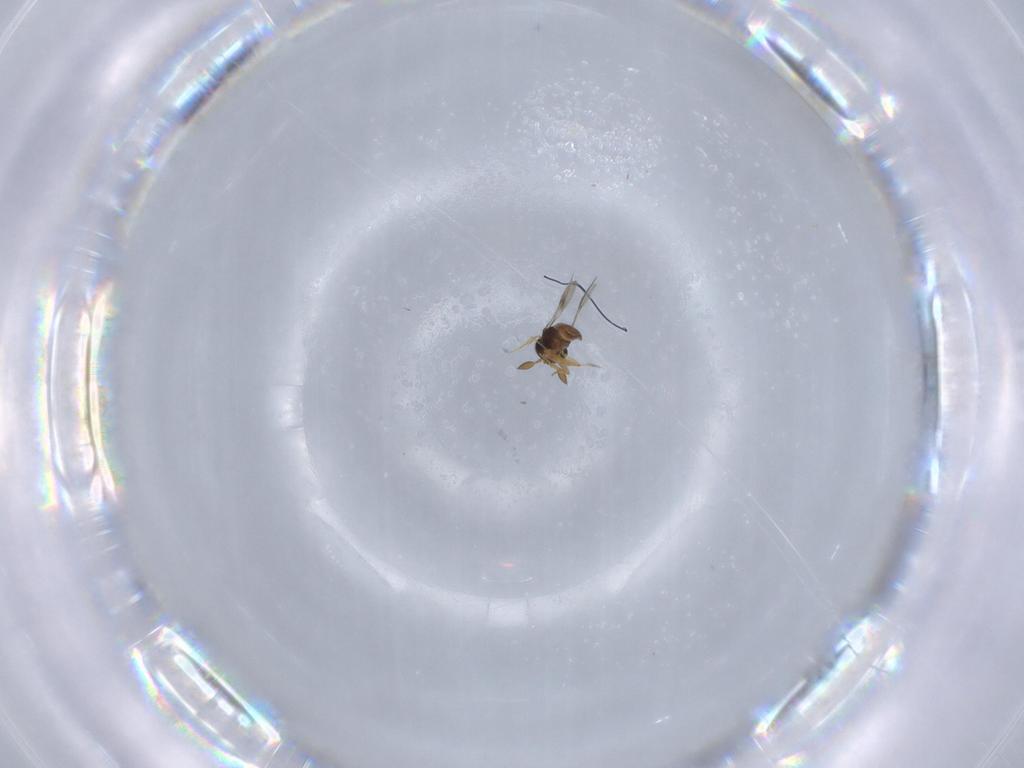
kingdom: Animalia
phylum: Arthropoda
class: Insecta
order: Hymenoptera
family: Scelionidae
